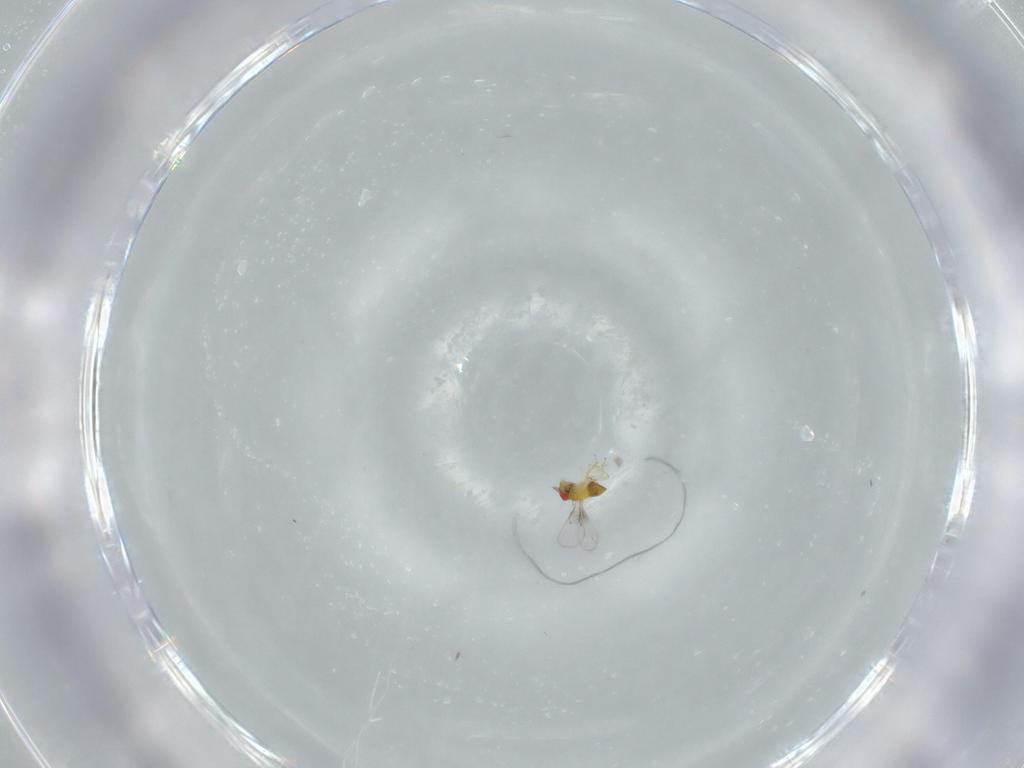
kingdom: Animalia
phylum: Arthropoda
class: Insecta
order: Hymenoptera
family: Trichogrammatidae
